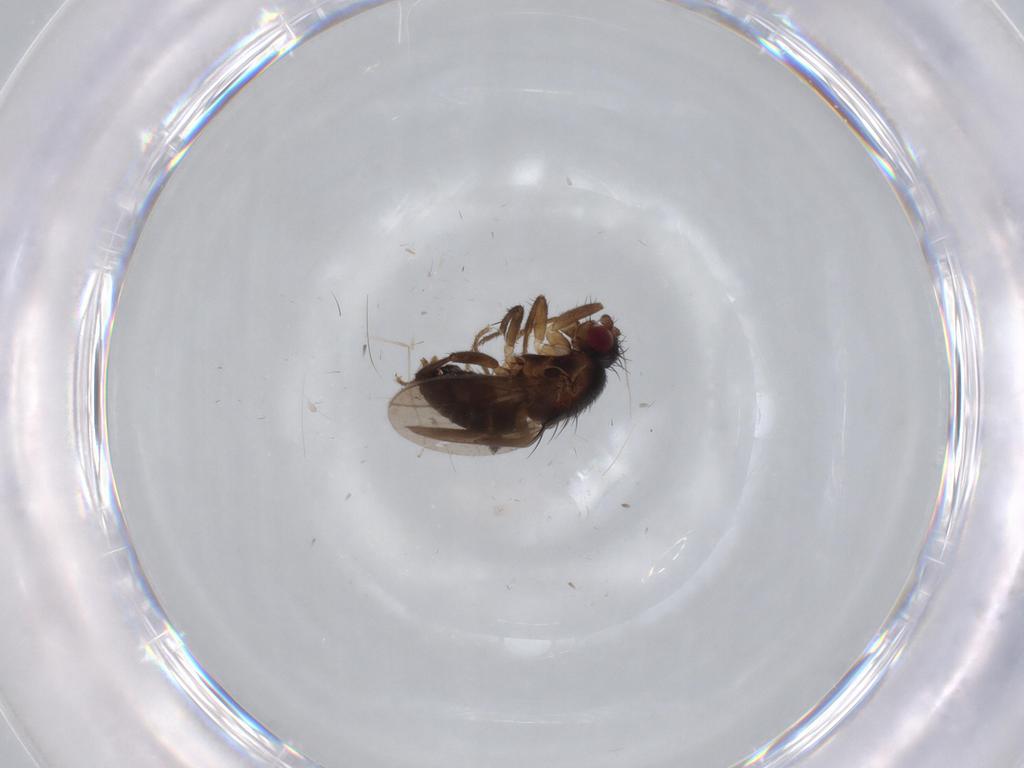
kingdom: Animalia
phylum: Arthropoda
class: Insecta
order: Diptera
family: Sphaeroceridae
